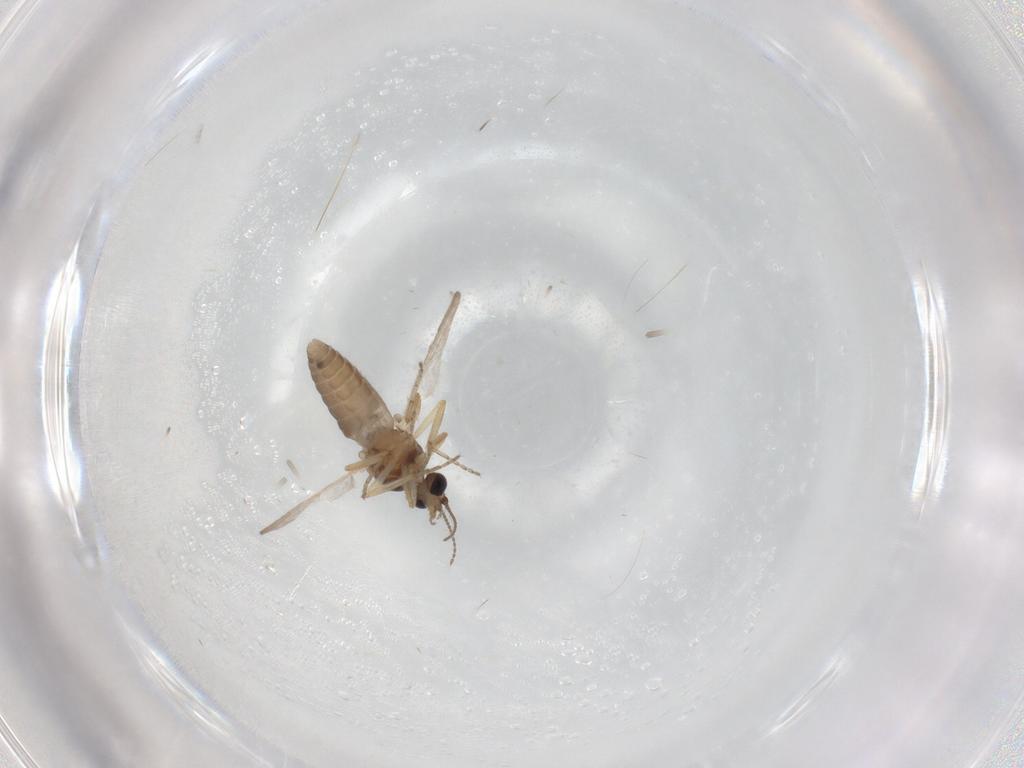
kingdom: Animalia
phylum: Arthropoda
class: Insecta
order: Diptera
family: Ceratopogonidae
